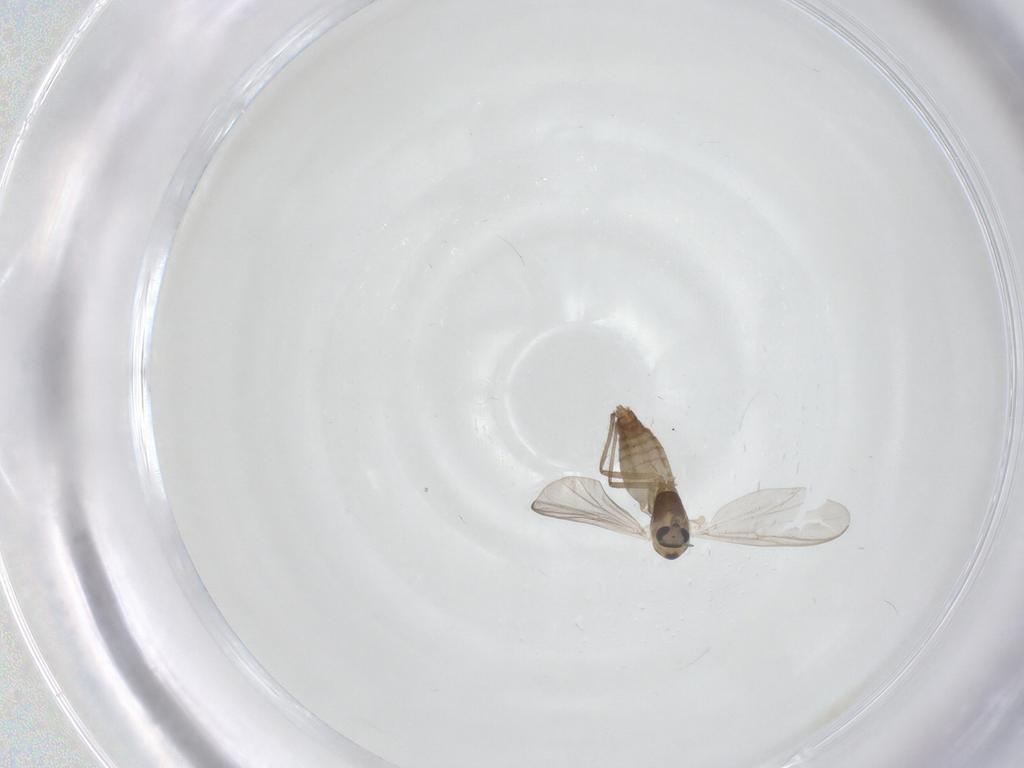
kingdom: Animalia
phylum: Arthropoda
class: Insecta
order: Diptera
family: Chironomidae
